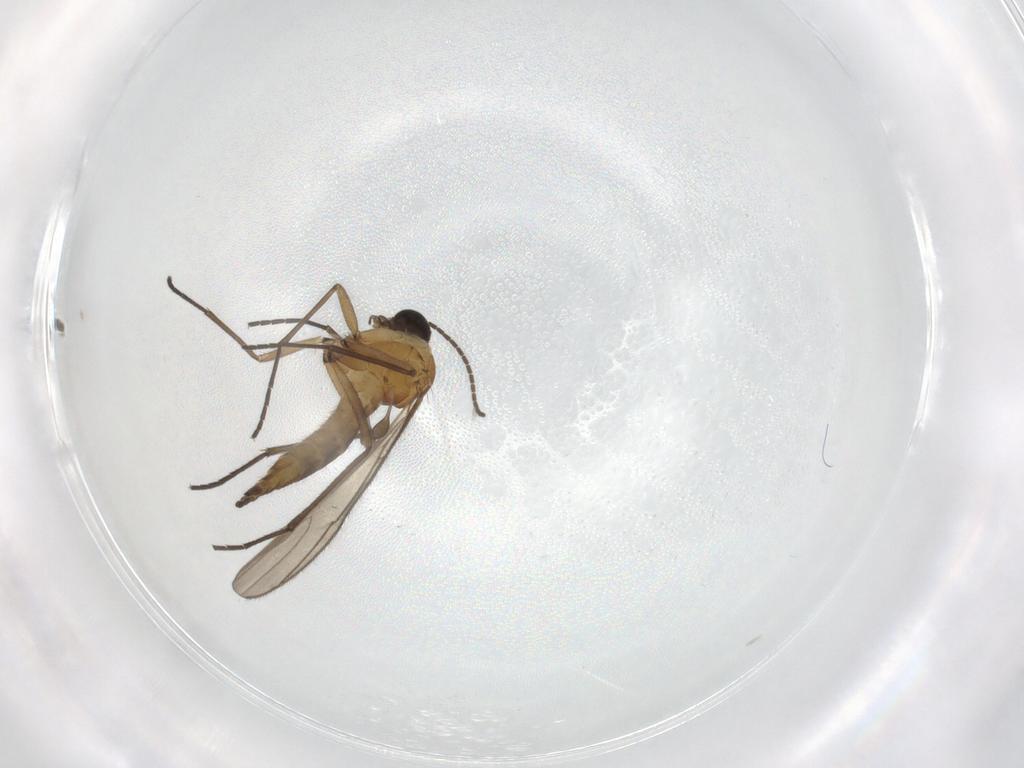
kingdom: Animalia
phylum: Arthropoda
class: Insecta
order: Diptera
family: Sciaridae
